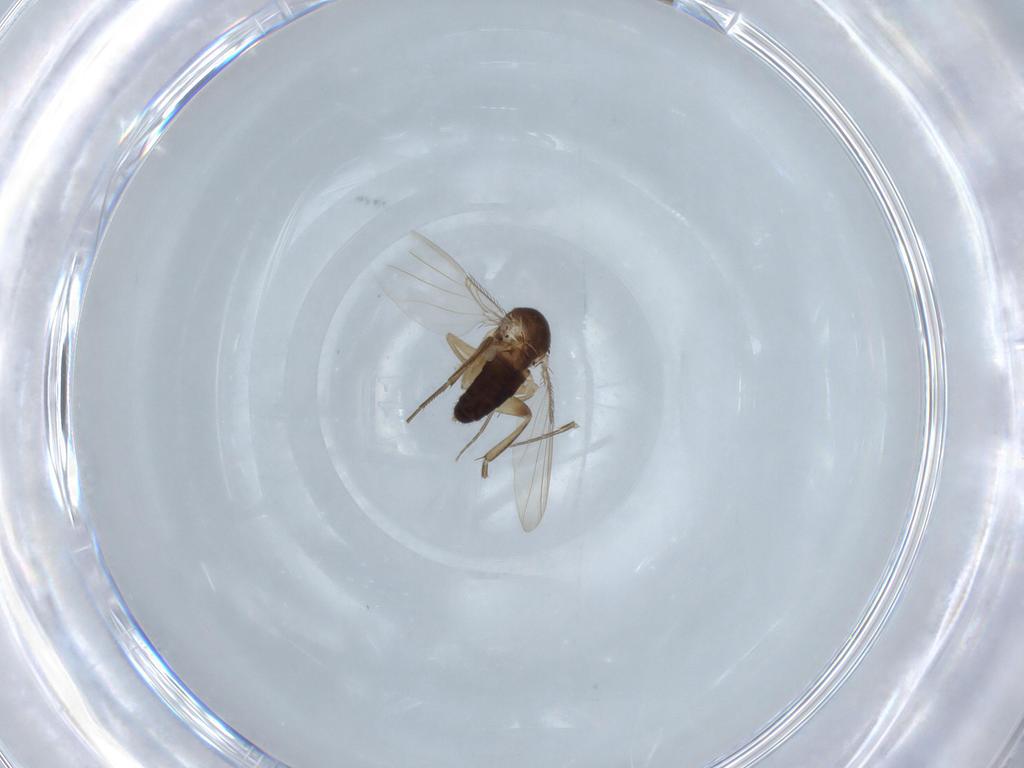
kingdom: Animalia
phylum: Arthropoda
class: Insecta
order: Diptera
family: Phoridae
